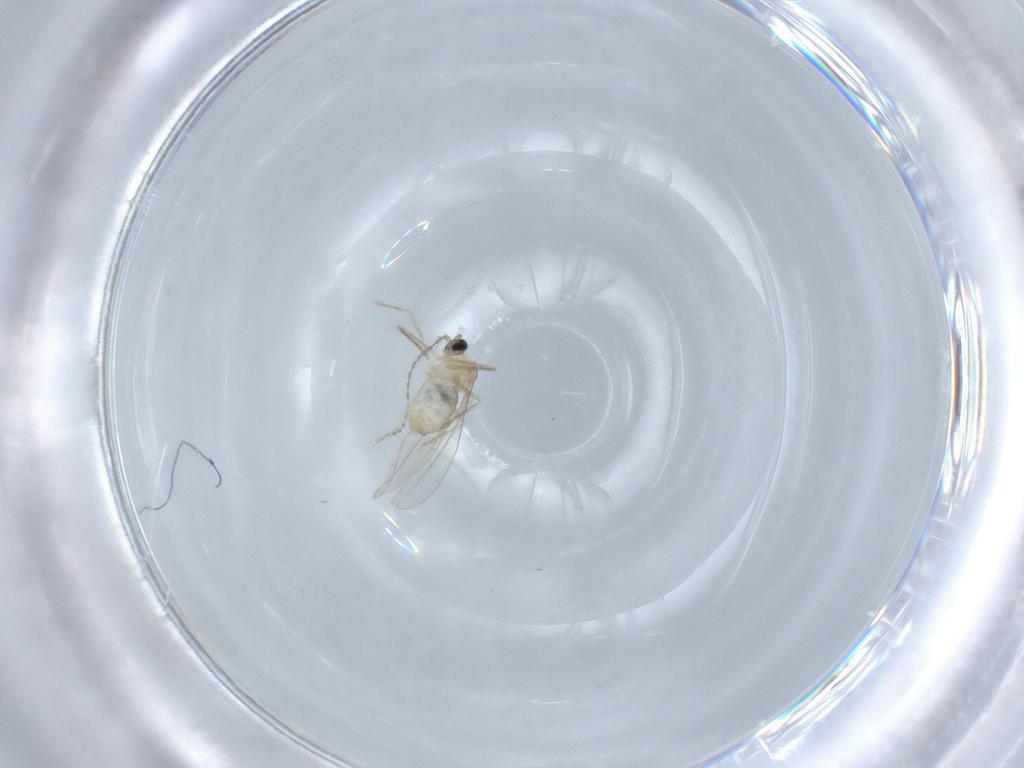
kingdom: Animalia
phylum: Arthropoda
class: Insecta
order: Diptera
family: Cecidomyiidae
